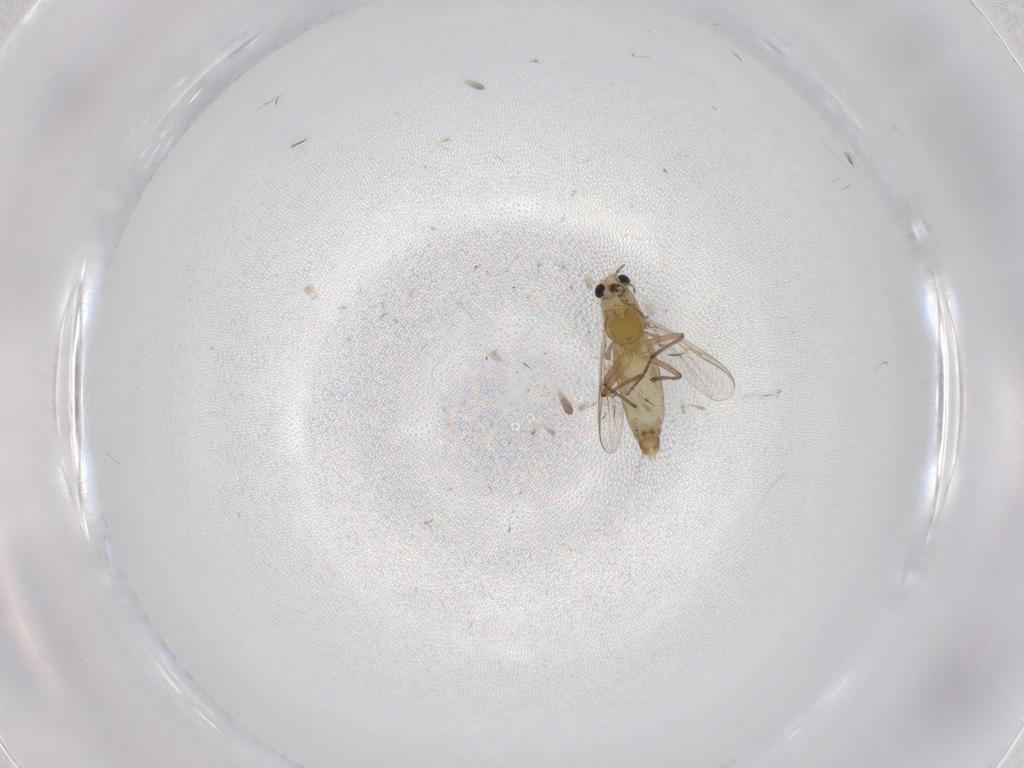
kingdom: Animalia
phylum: Arthropoda
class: Insecta
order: Diptera
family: Chironomidae
